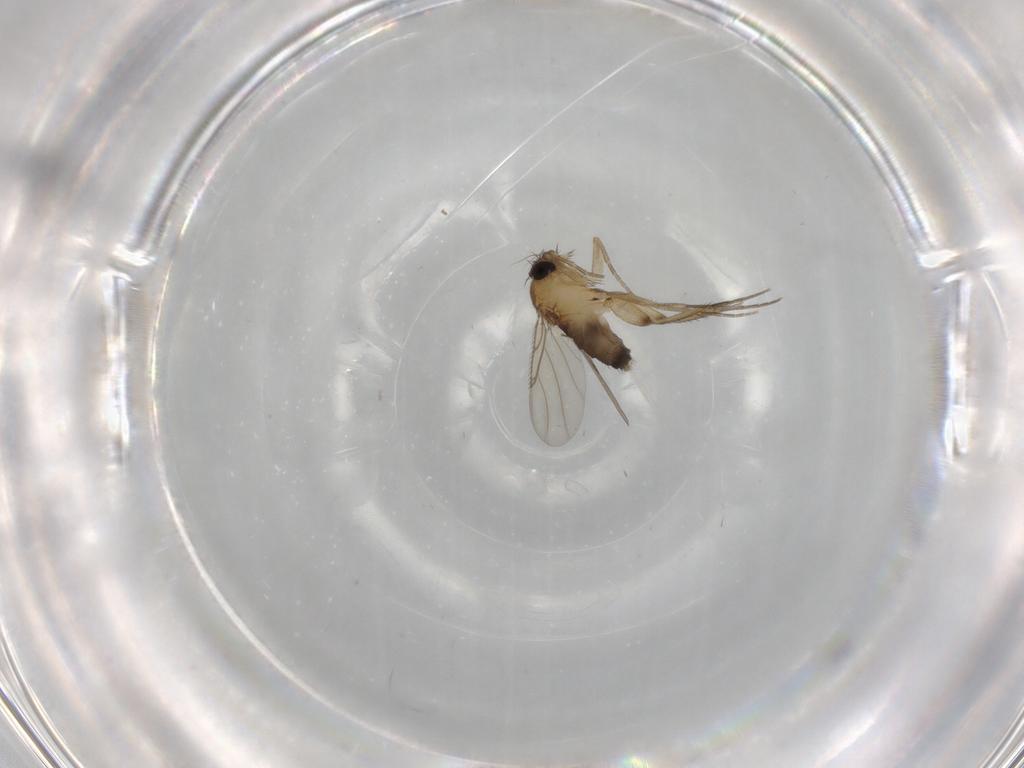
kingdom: Animalia
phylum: Arthropoda
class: Insecta
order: Diptera
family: Phoridae
